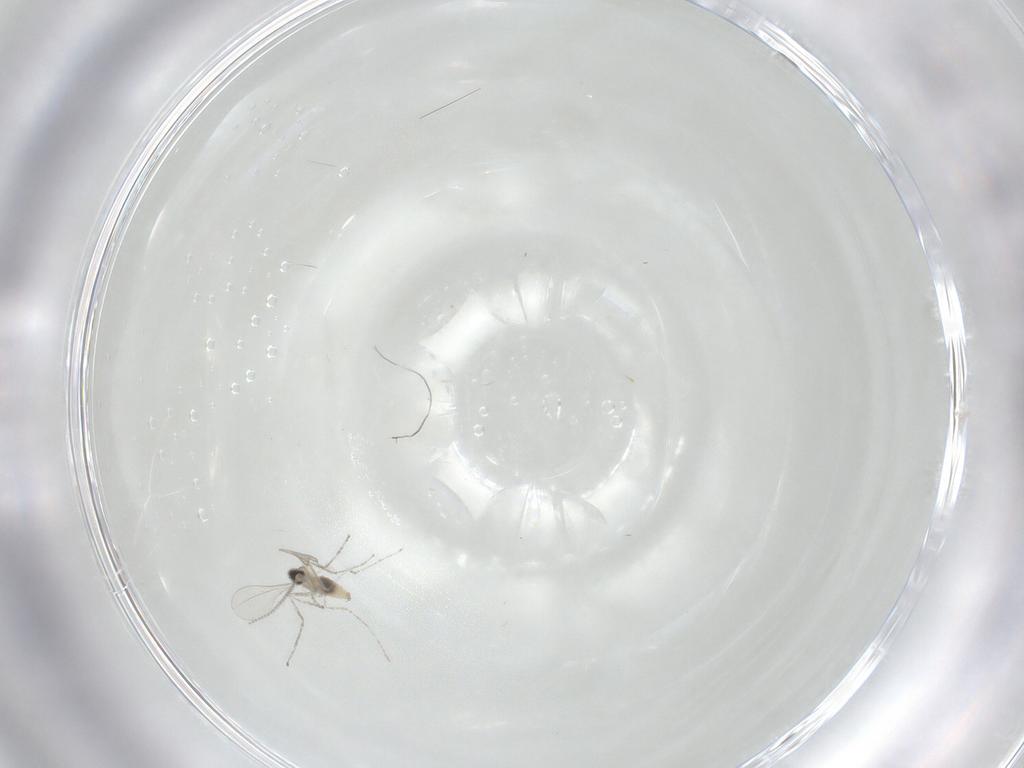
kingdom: Animalia
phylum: Arthropoda
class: Insecta
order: Diptera
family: Cecidomyiidae
